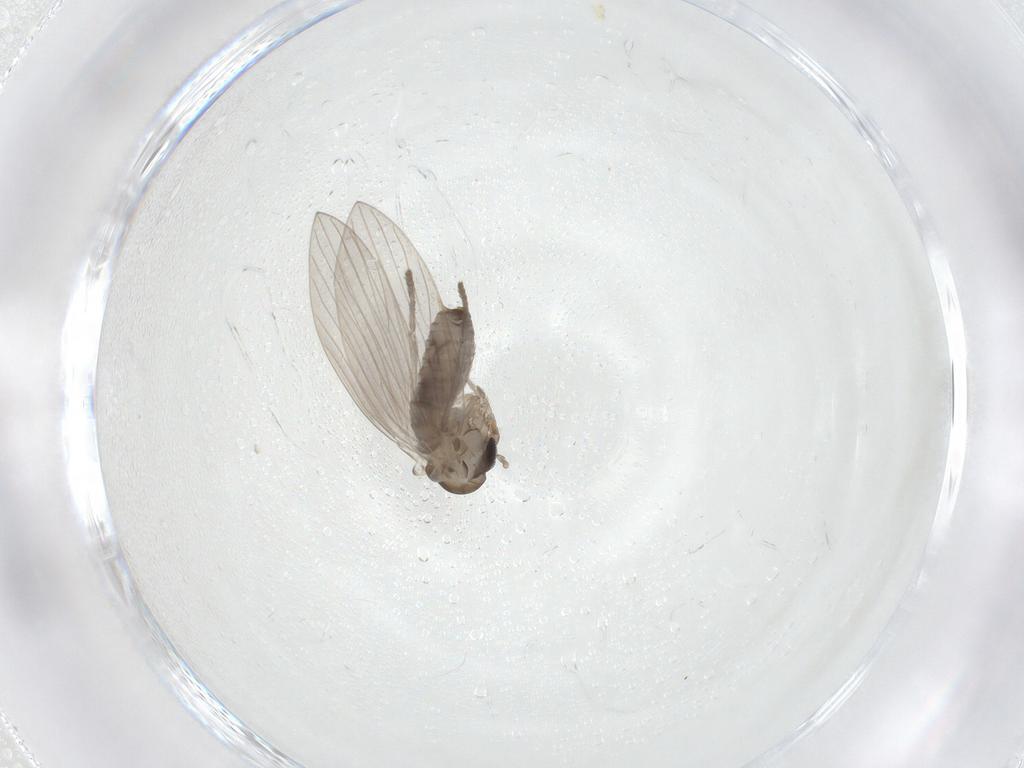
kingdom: Animalia
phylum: Arthropoda
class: Insecta
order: Diptera
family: Psychodidae
